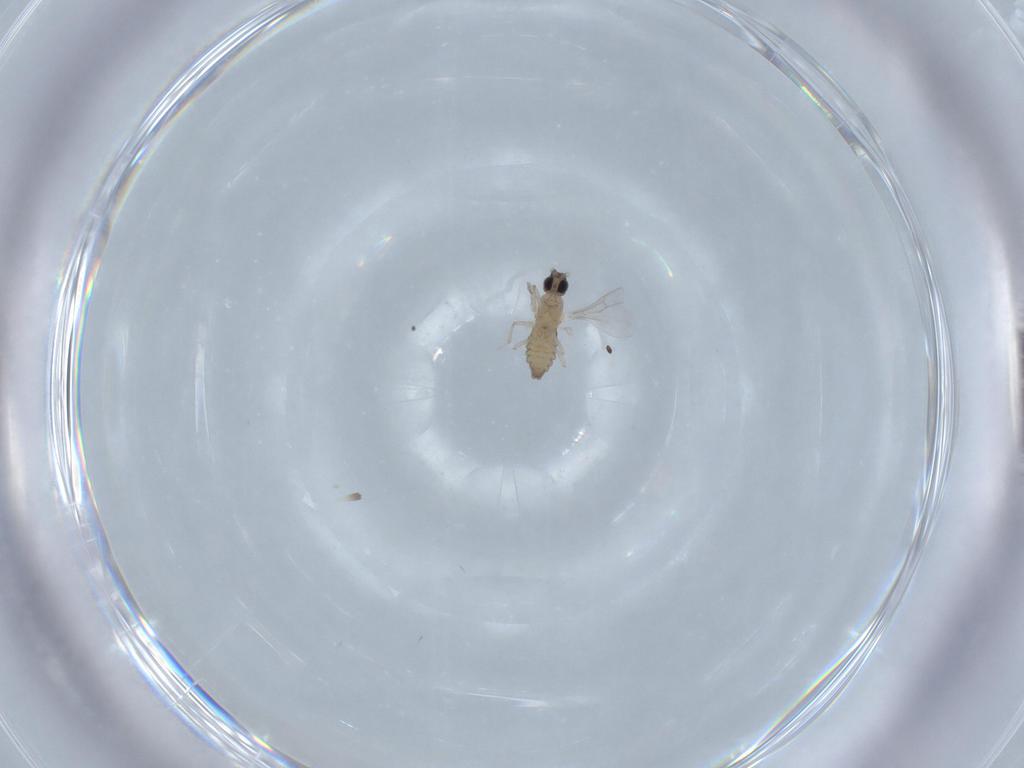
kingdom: Animalia
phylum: Arthropoda
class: Insecta
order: Diptera
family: Cecidomyiidae
